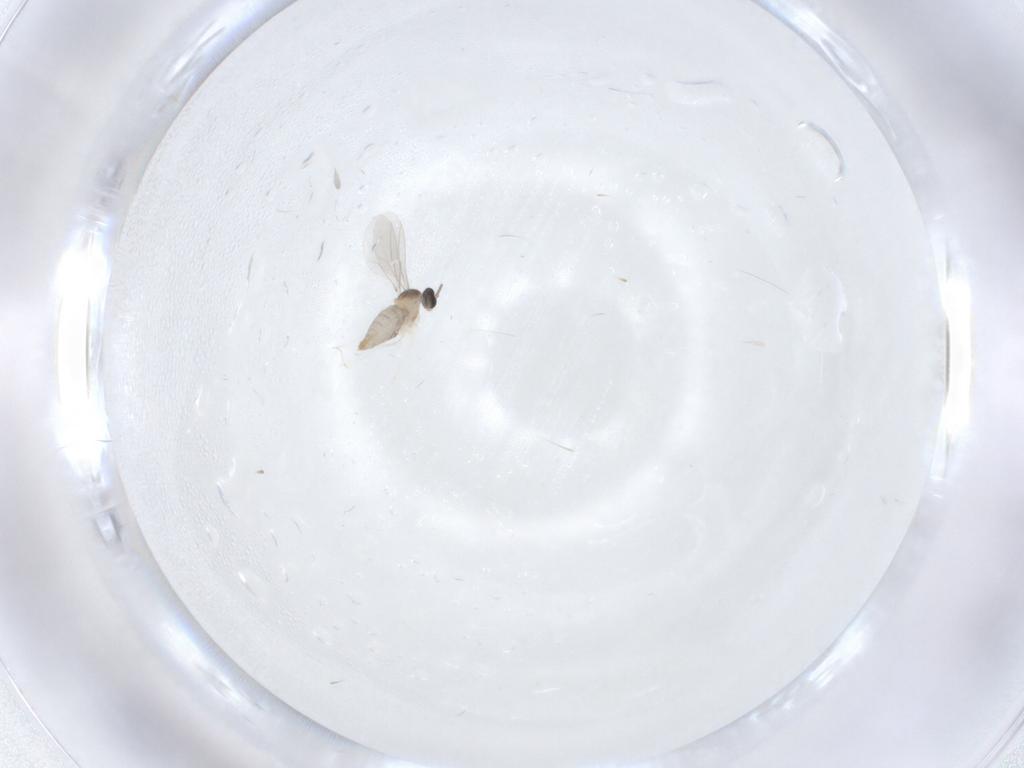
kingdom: Animalia
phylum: Arthropoda
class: Insecta
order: Diptera
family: Cecidomyiidae
